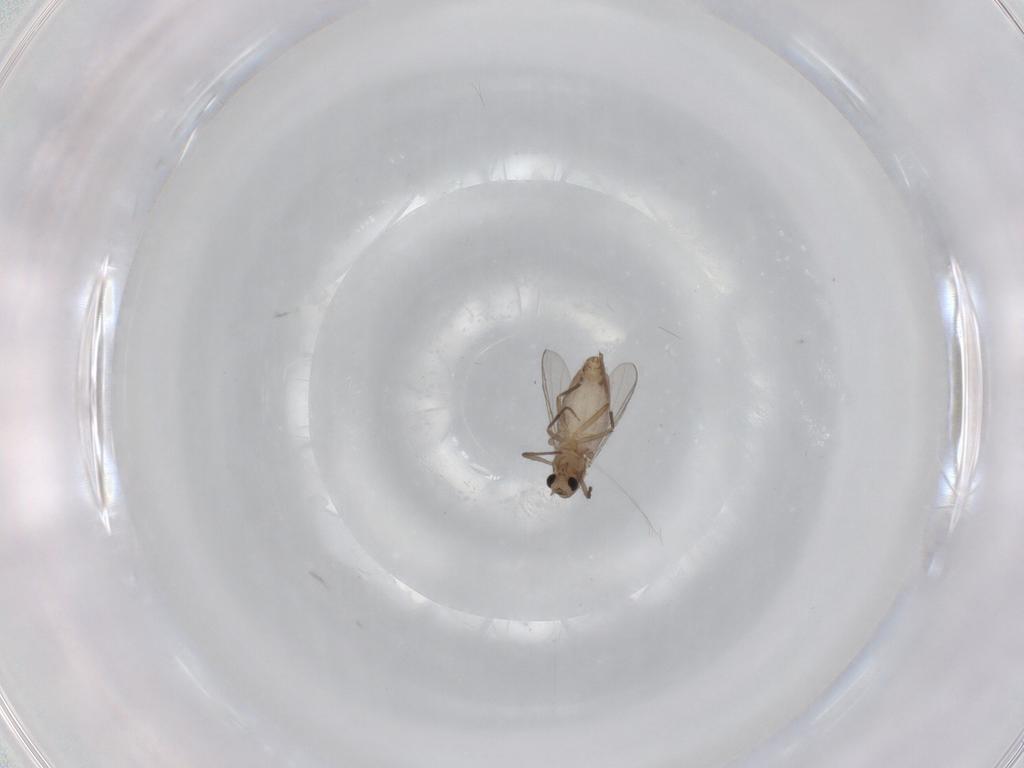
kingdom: Animalia
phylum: Arthropoda
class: Insecta
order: Diptera
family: Chironomidae
